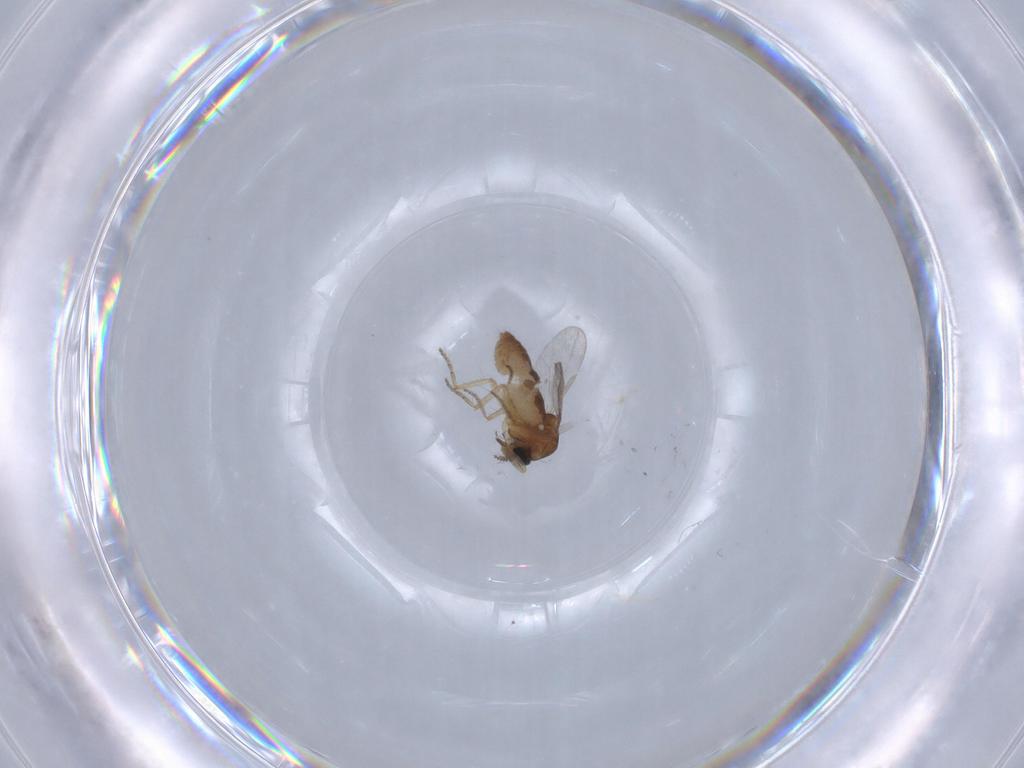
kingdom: Animalia
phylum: Arthropoda
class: Insecta
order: Diptera
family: Ceratopogonidae
